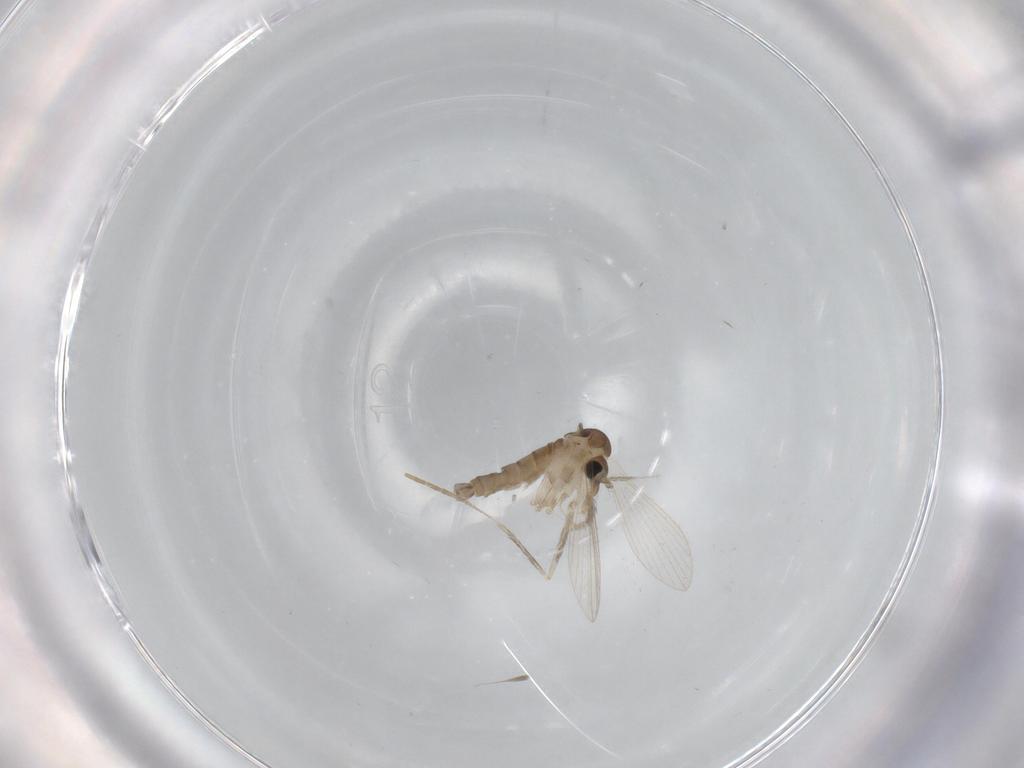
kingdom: Animalia
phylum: Arthropoda
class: Insecta
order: Diptera
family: Psychodidae
